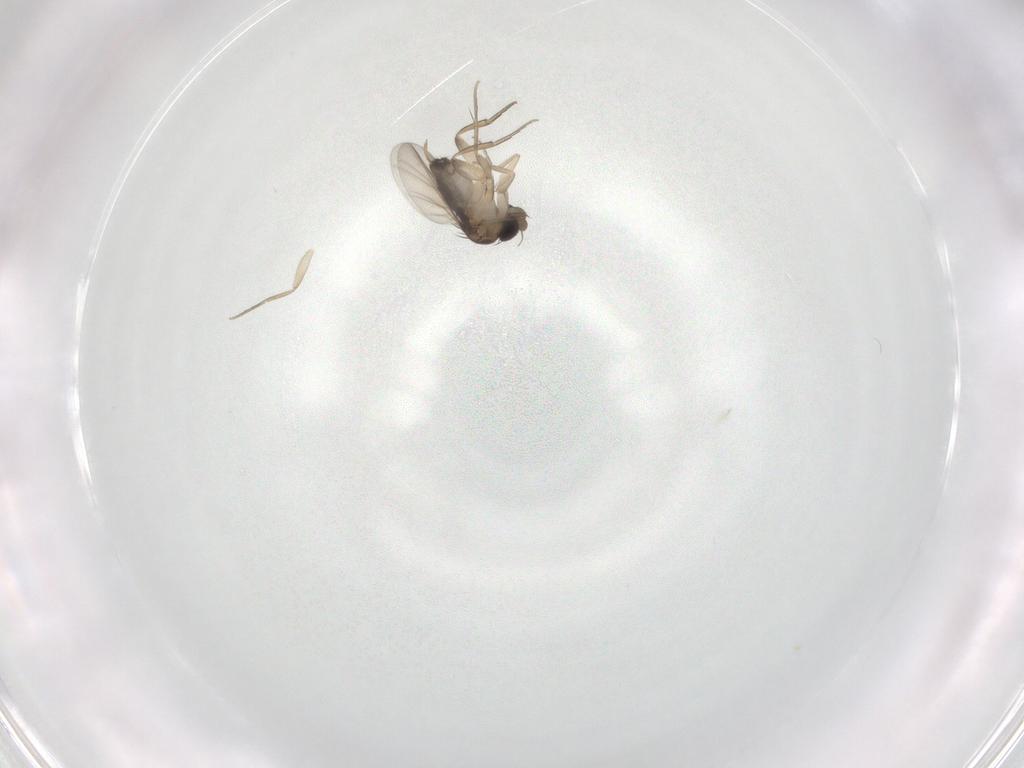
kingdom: Animalia
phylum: Arthropoda
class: Insecta
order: Diptera
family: Phoridae
